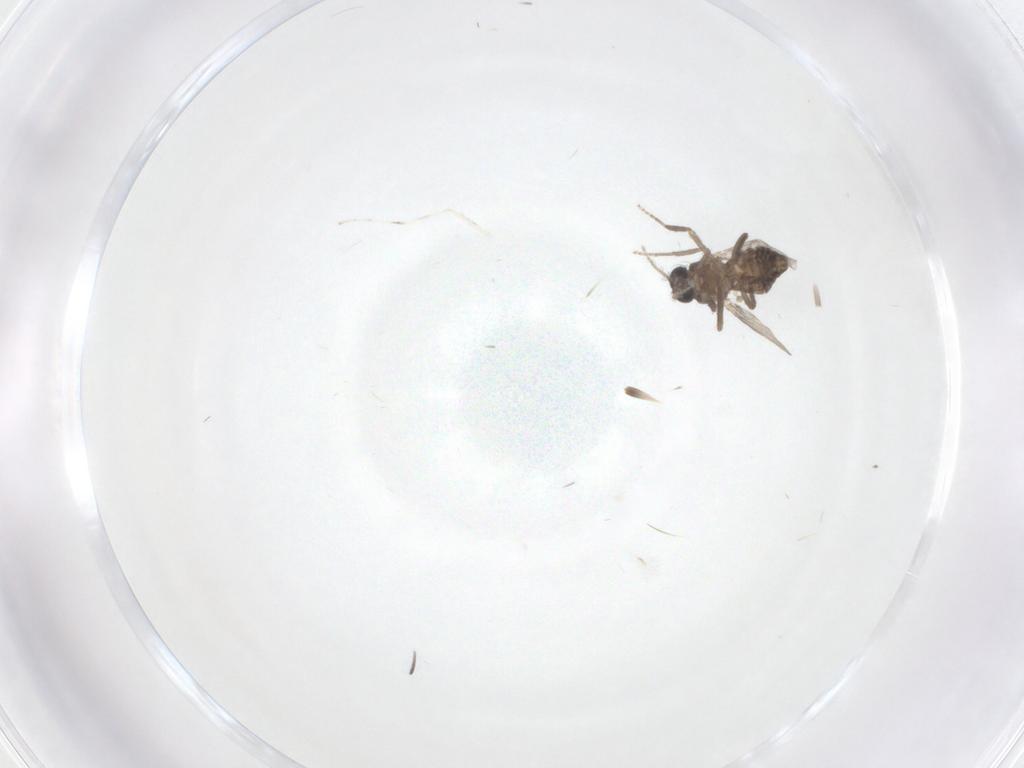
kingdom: Animalia
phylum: Arthropoda
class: Insecta
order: Diptera
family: Ceratopogonidae
